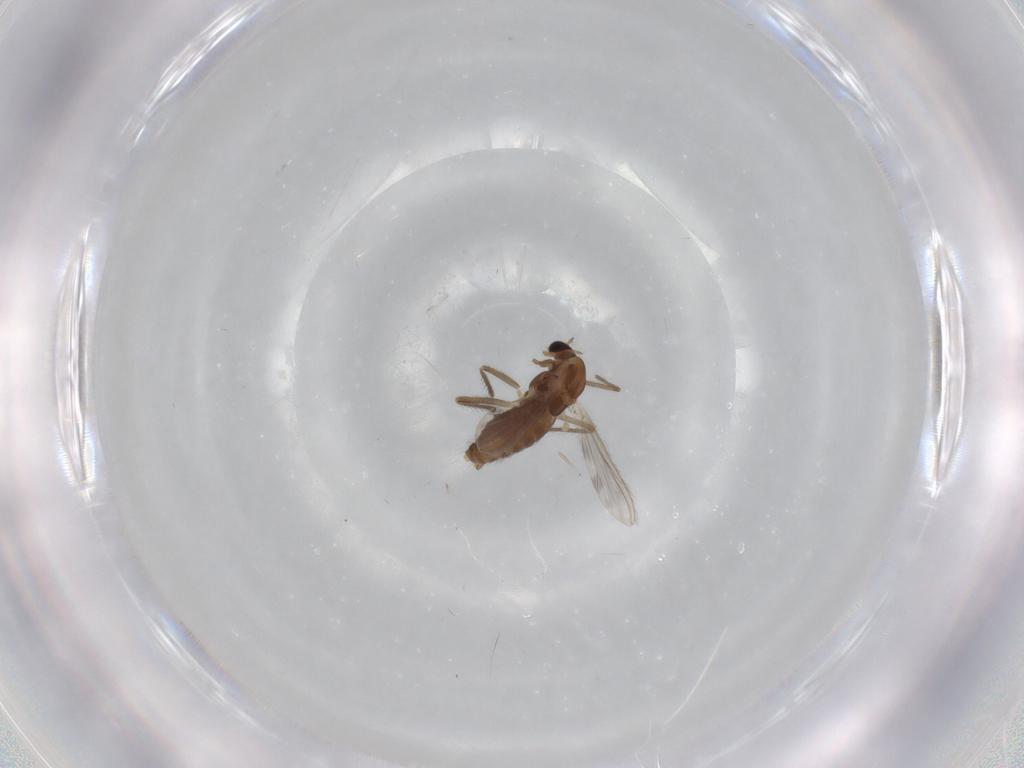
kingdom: Animalia
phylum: Arthropoda
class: Insecta
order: Diptera
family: Chironomidae
